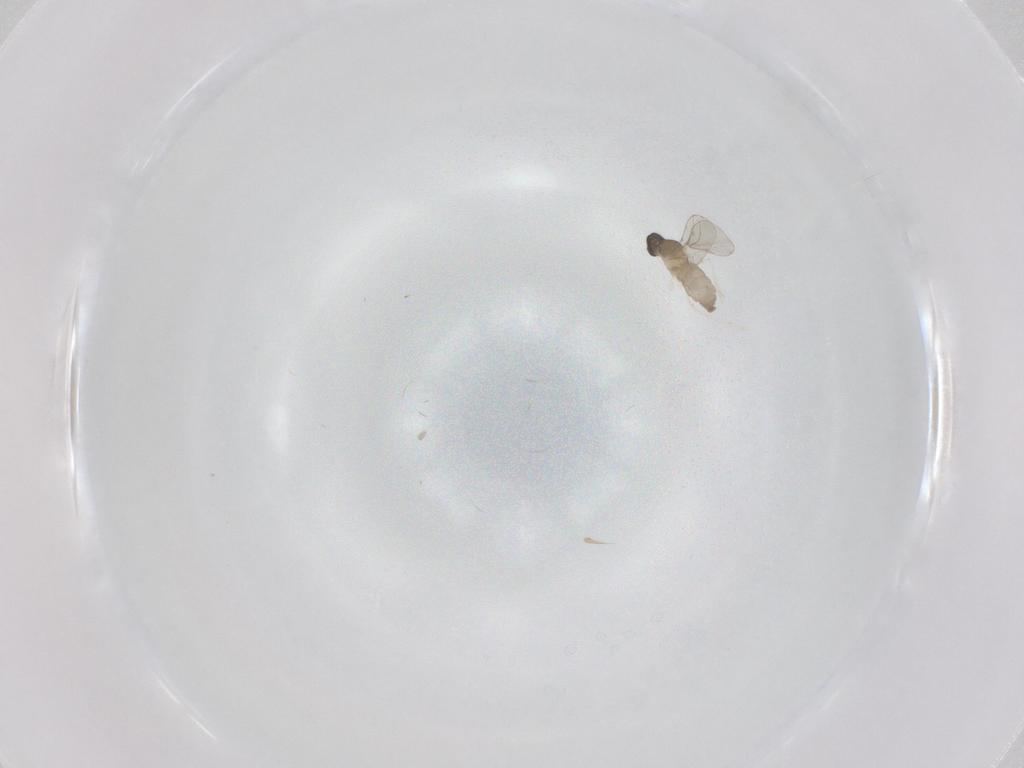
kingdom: Animalia
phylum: Arthropoda
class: Insecta
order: Diptera
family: Cecidomyiidae
